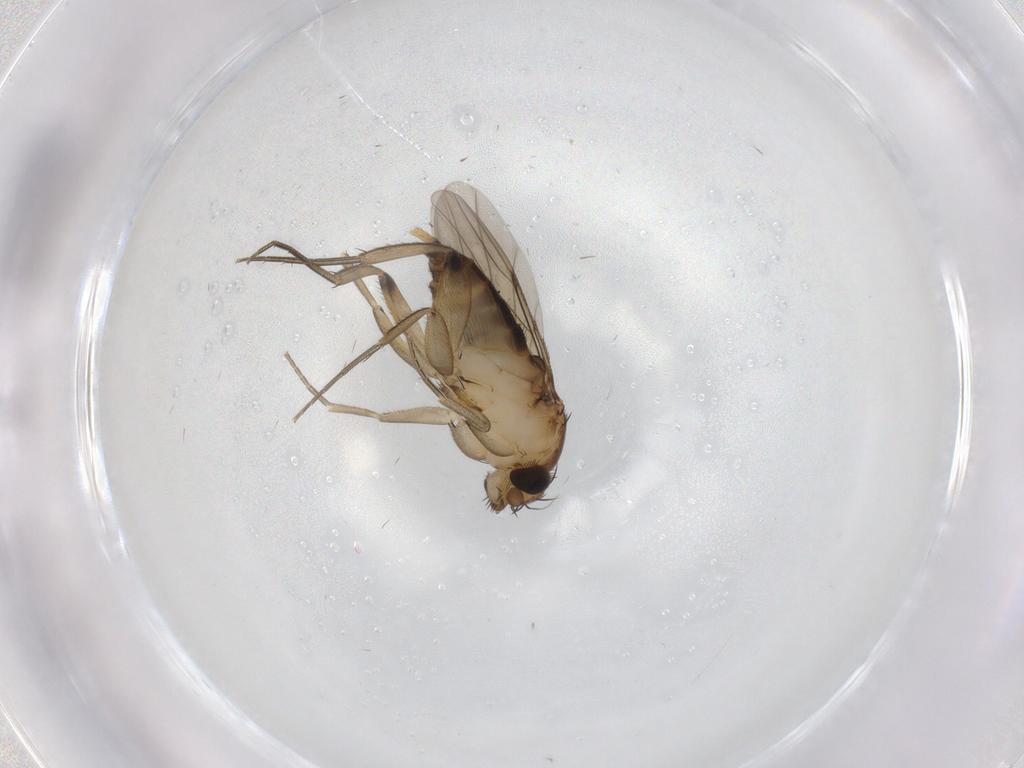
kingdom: Animalia
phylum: Arthropoda
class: Insecta
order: Diptera
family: Phoridae
